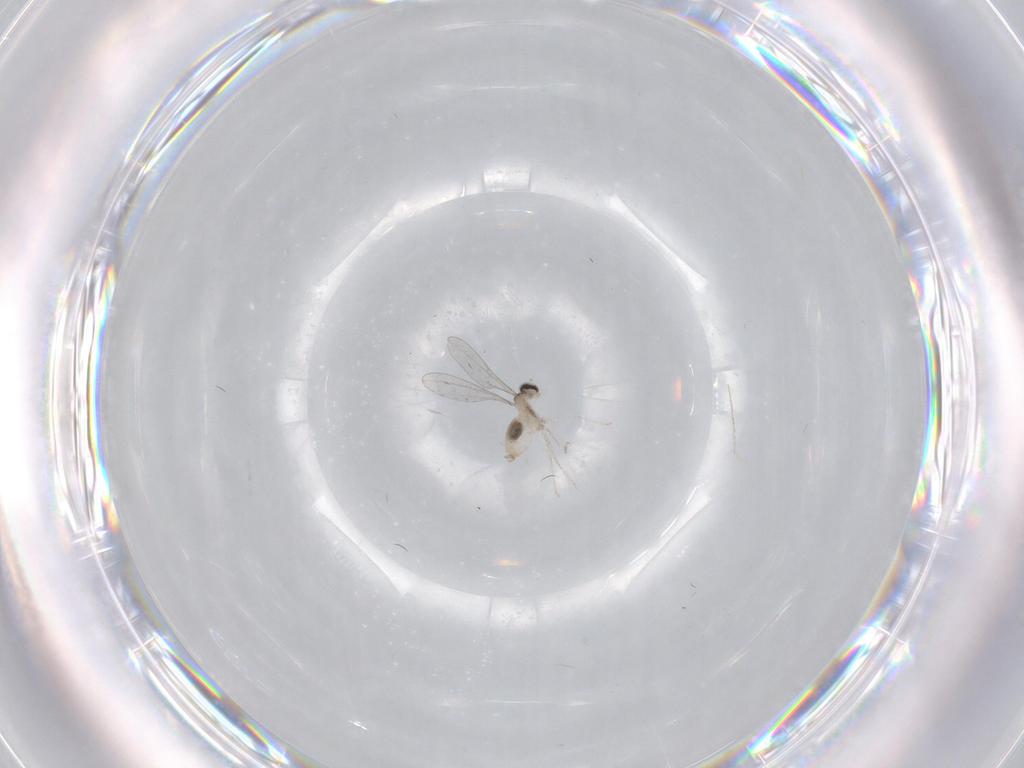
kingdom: Animalia
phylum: Arthropoda
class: Insecta
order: Diptera
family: Cecidomyiidae
